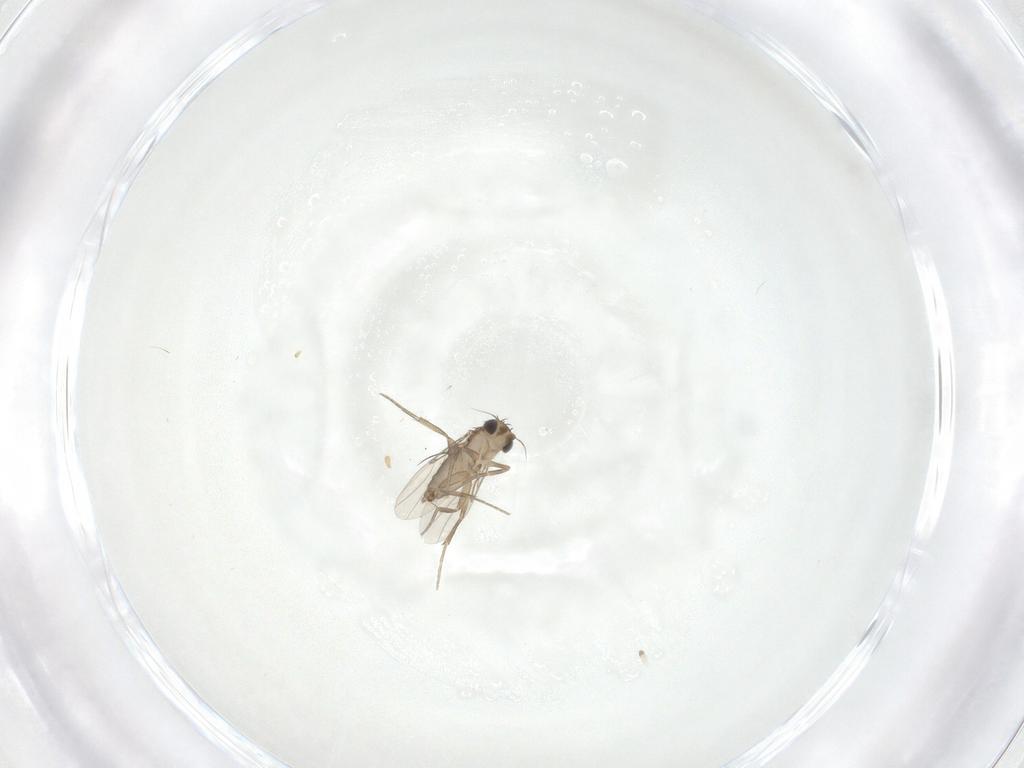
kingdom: Animalia
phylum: Arthropoda
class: Insecta
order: Diptera
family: Phoridae
